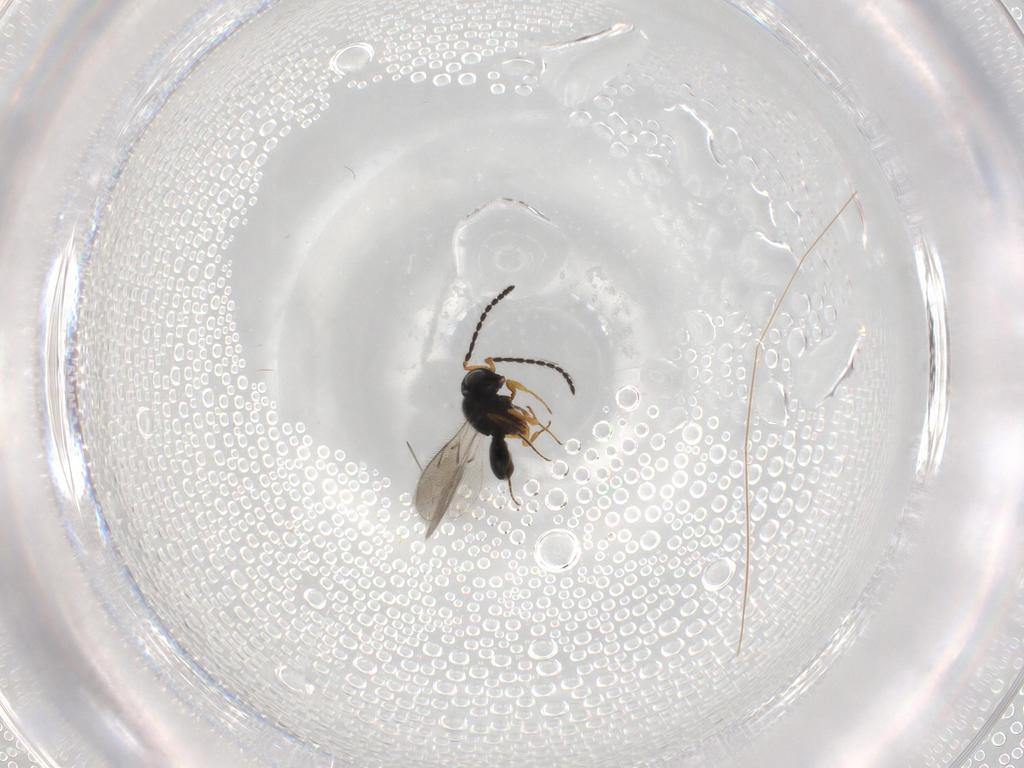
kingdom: Animalia
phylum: Arthropoda
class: Insecta
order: Hymenoptera
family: Scelionidae
